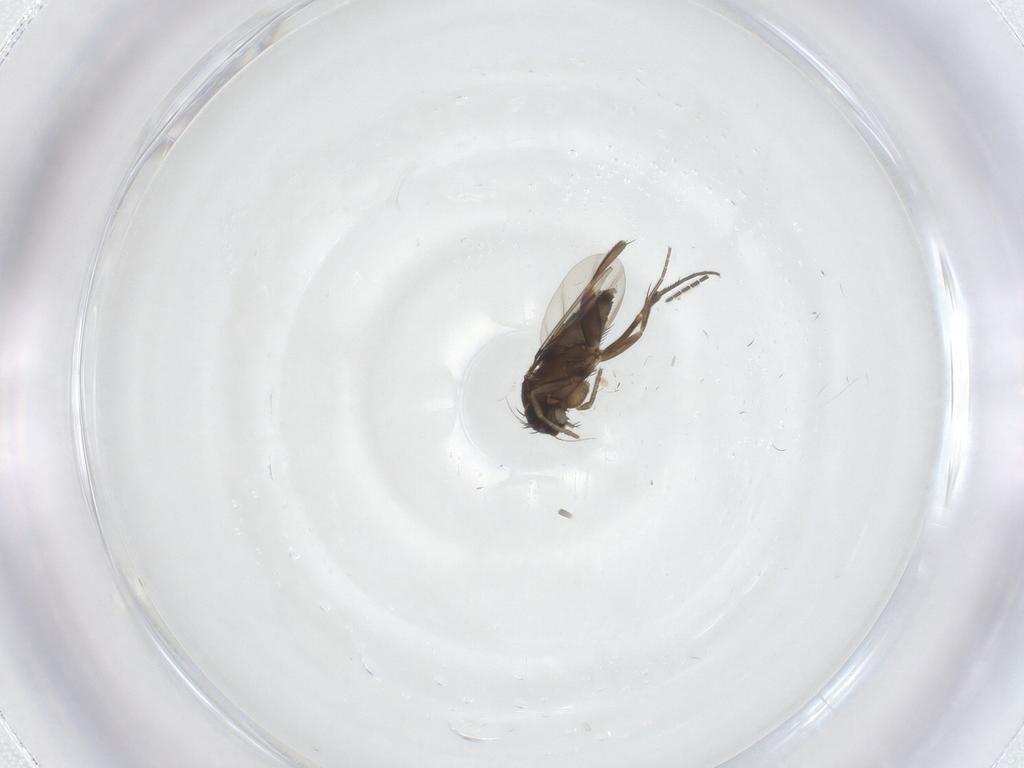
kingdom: Animalia
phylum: Arthropoda
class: Insecta
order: Diptera
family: Phoridae
